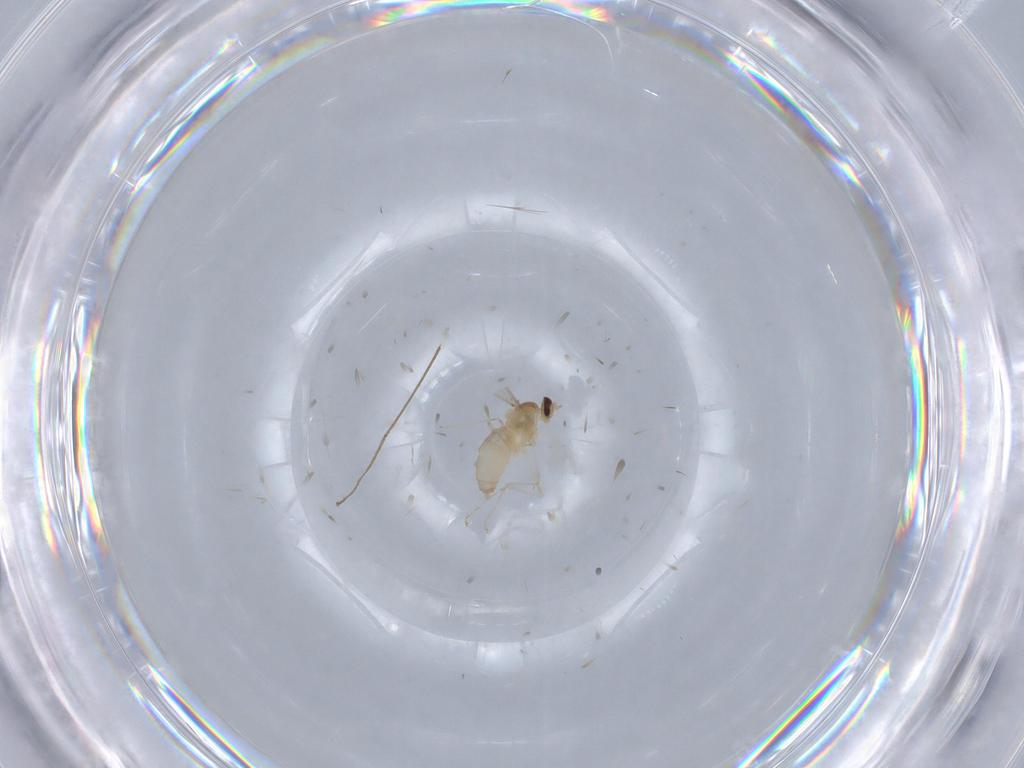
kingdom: Animalia
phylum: Arthropoda
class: Insecta
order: Diptera
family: Cecidomyiidae
